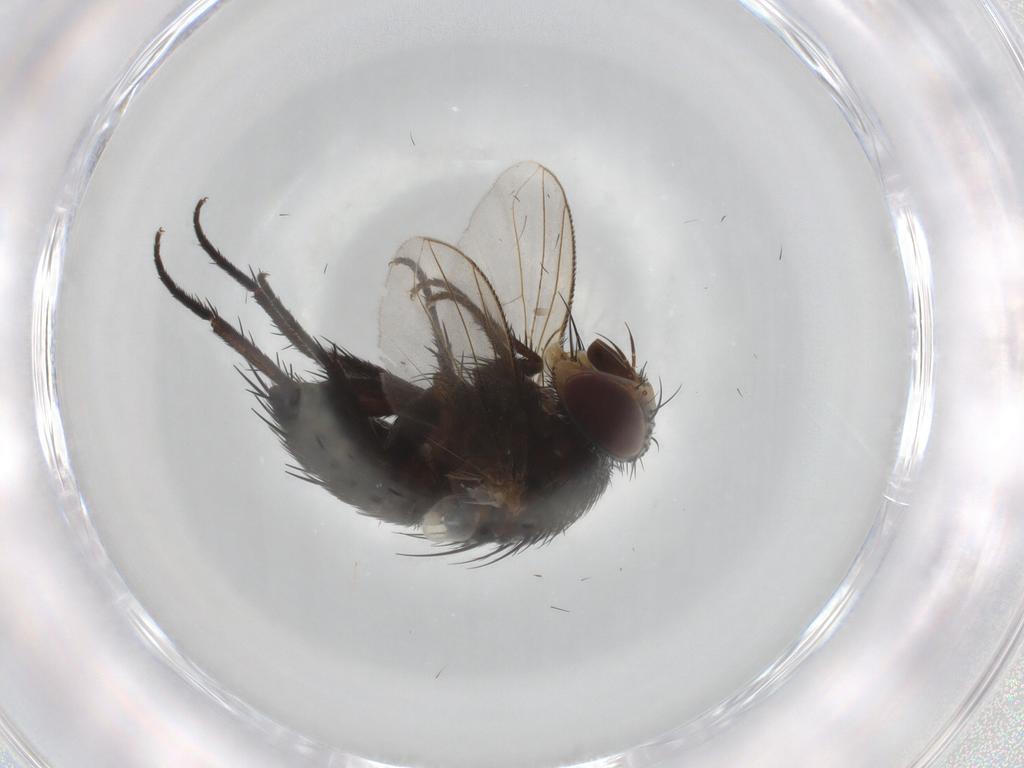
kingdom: Animalia
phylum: Arthropoda
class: Insecta
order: Diptera
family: Tachinidae
